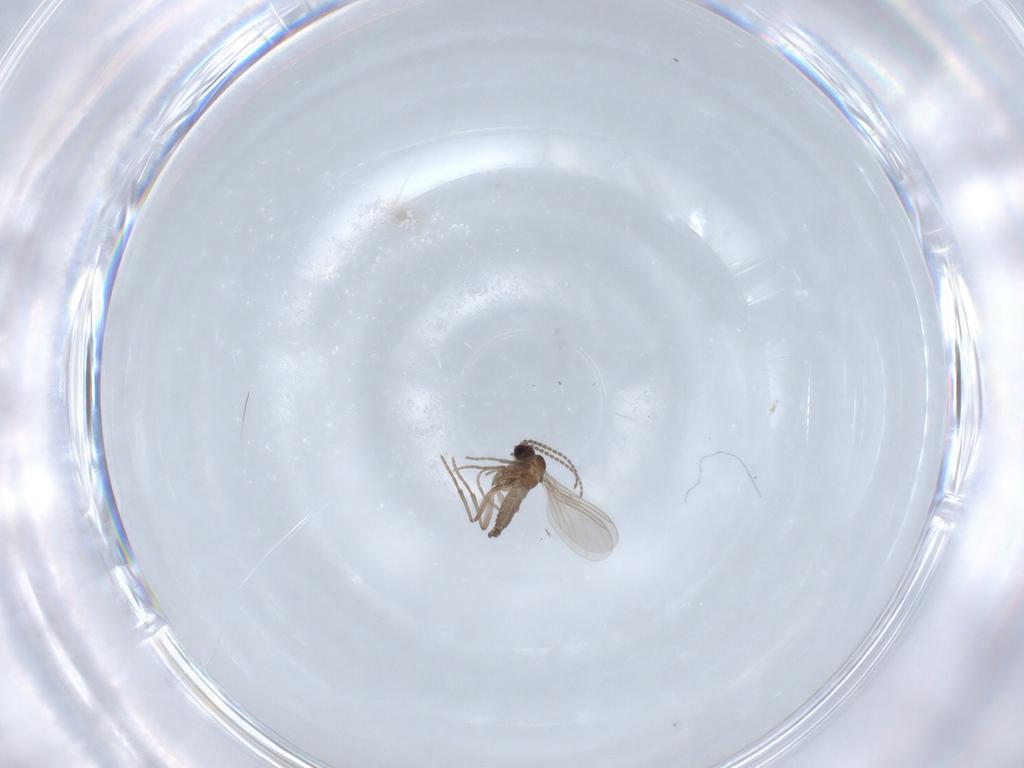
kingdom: Animalia
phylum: Arthropoda
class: Insecta
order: Diptera
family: Sciaridae
